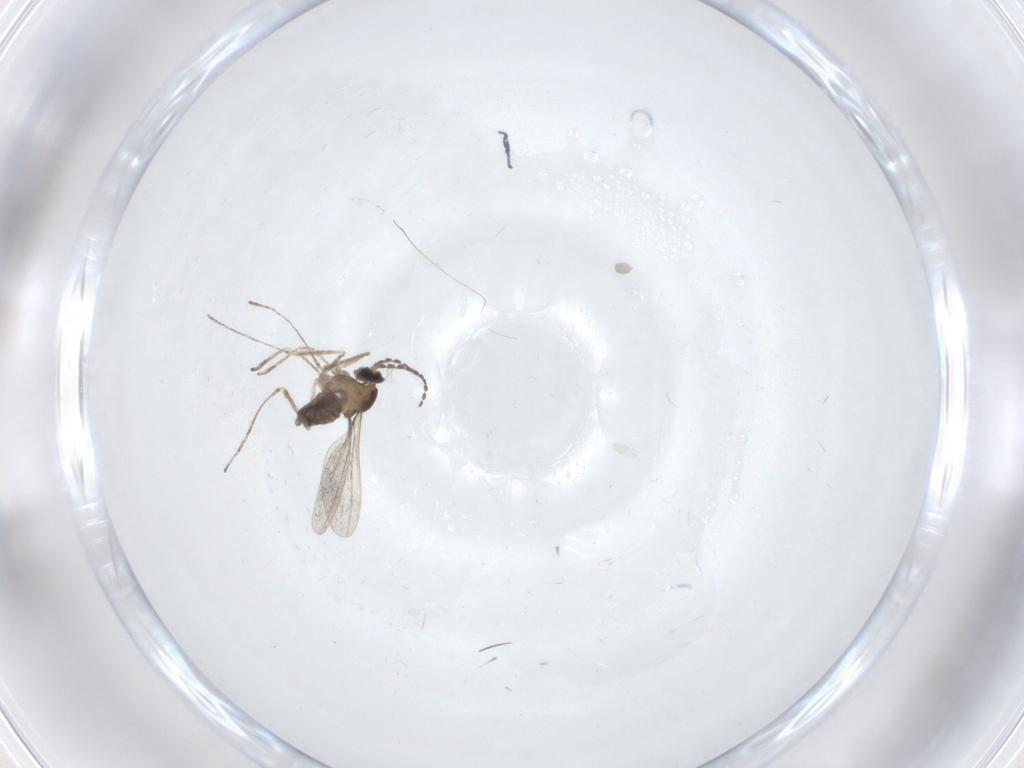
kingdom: Animalia
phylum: Arthropoda
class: Insecta
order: Diptera
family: Cecidomyiidae
